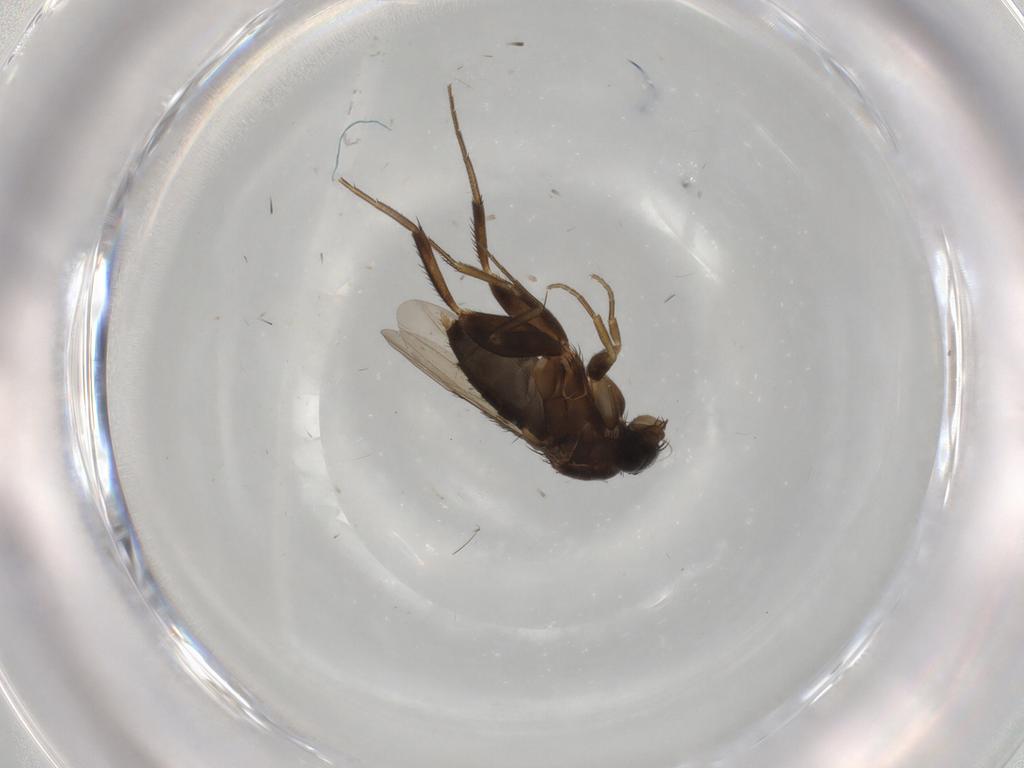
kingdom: Animalia
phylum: Arthropoda
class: Insecta
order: Diptera
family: Phoridae
